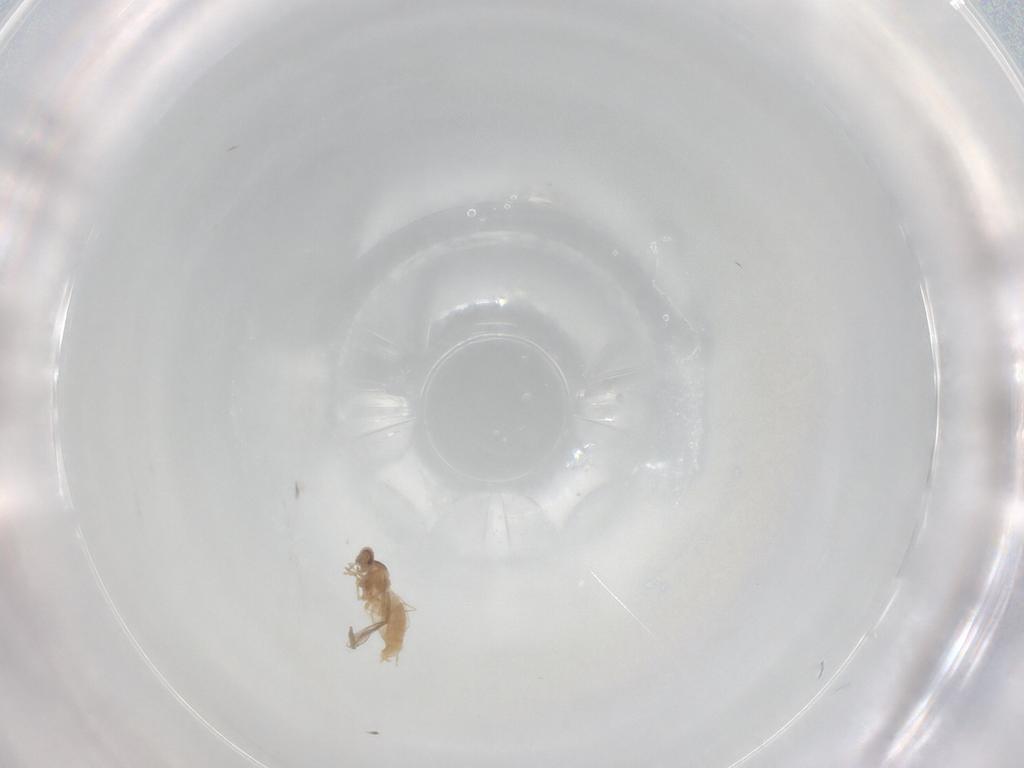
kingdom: Animalia
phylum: Arthropoda
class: Insecta
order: Diptera
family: Cecidomyiidae
